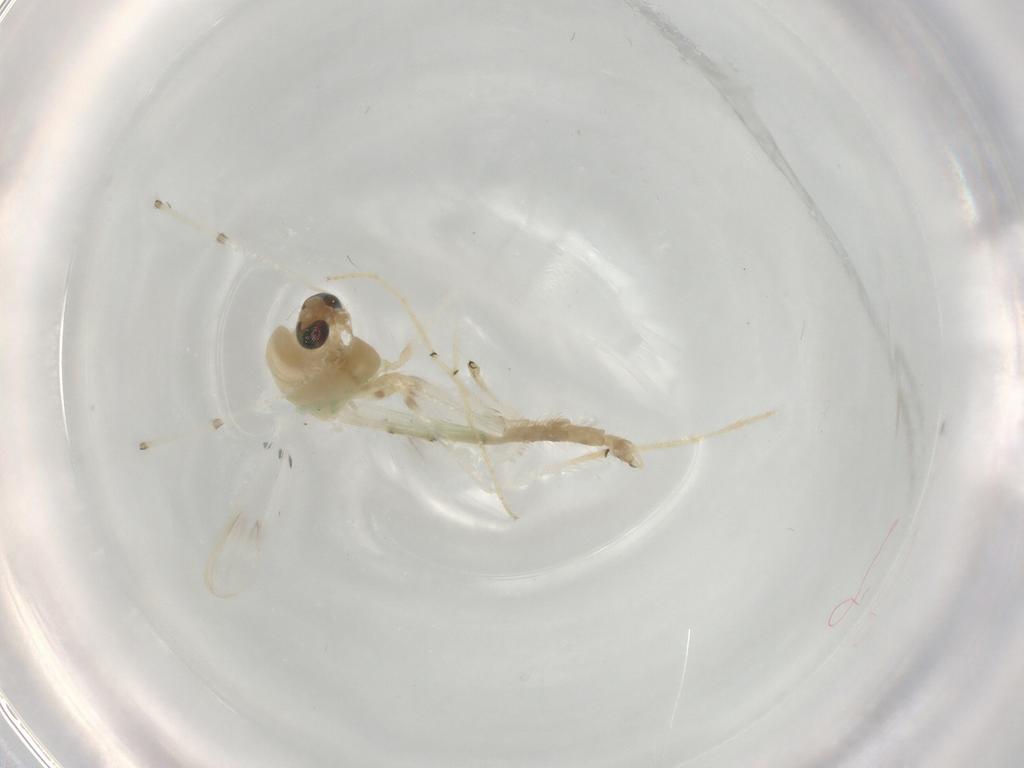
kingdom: Animalia
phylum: Arthropoda
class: Insecta
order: Diptera
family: Chironomidae
